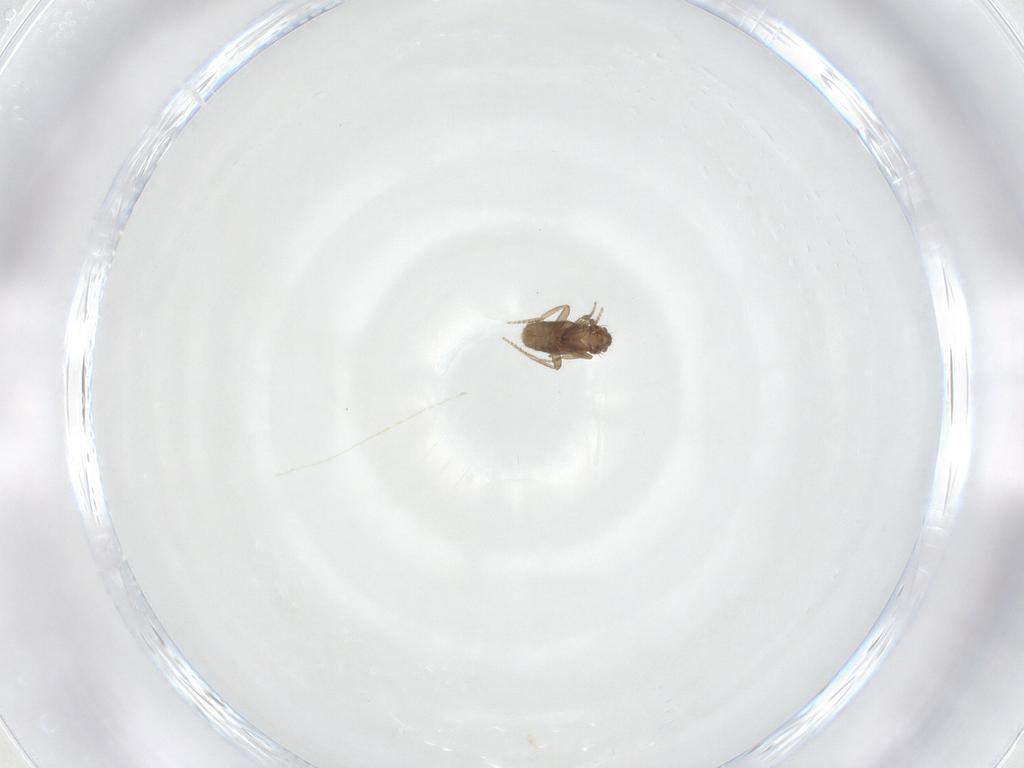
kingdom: Animalia
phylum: Arthropoda
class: Insecta
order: Diptera
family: Phoridae
